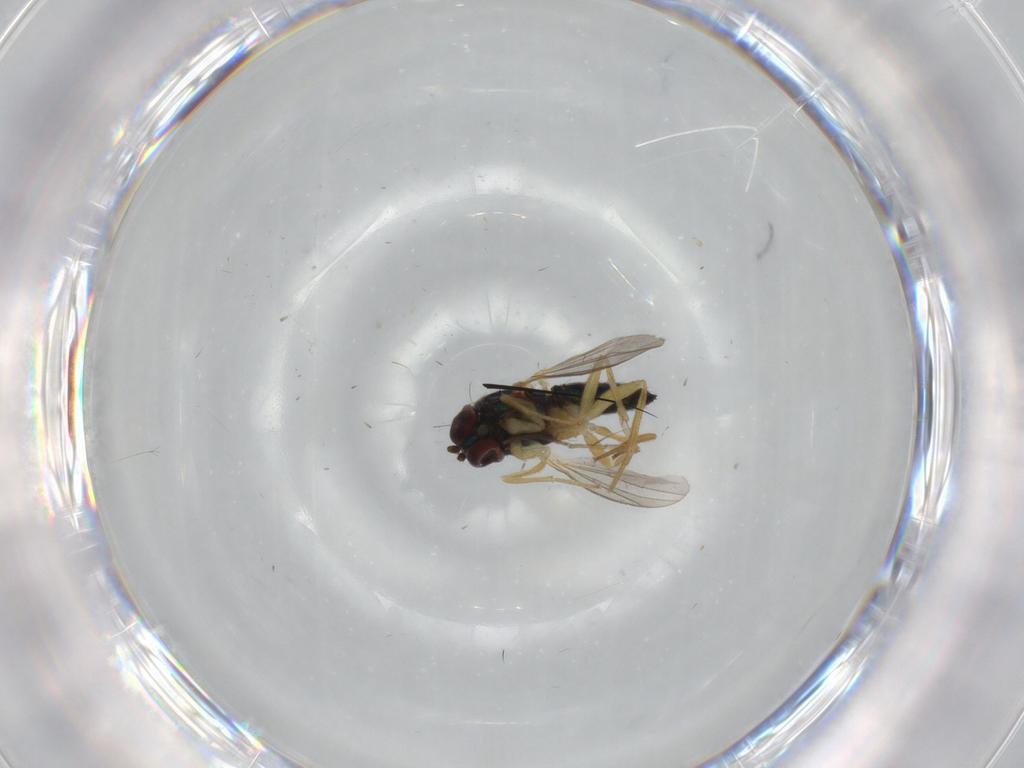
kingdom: Animalia
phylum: Arthropoda
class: Insecta
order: Diptera
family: Dolichopodidae
